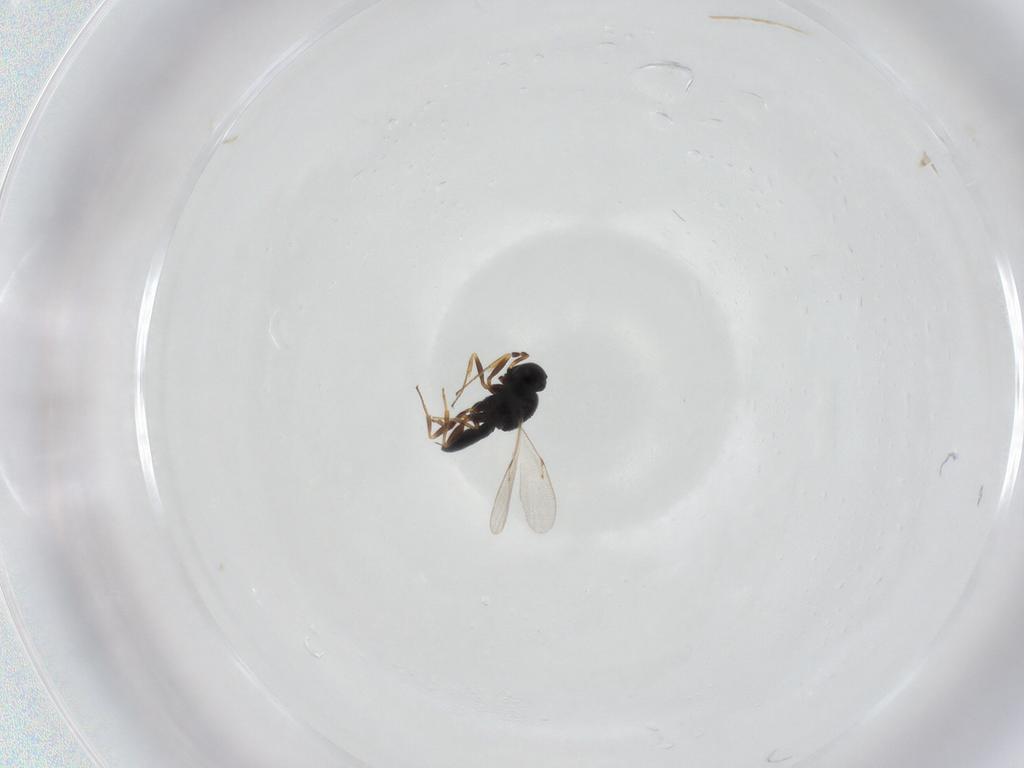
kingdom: Animalia
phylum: Arthropoda
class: Insecta
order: Hymenoptera
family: Scelionidae
